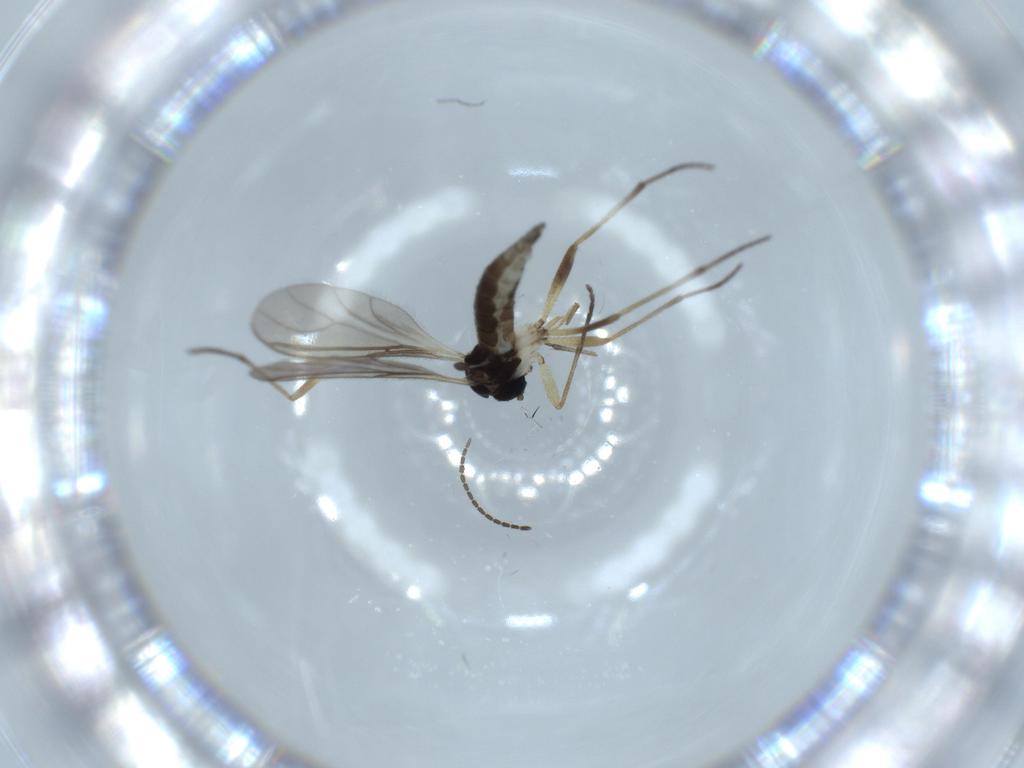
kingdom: Animalia
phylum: Arthropoda
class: Insecta
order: Diptera
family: Sciaridae
